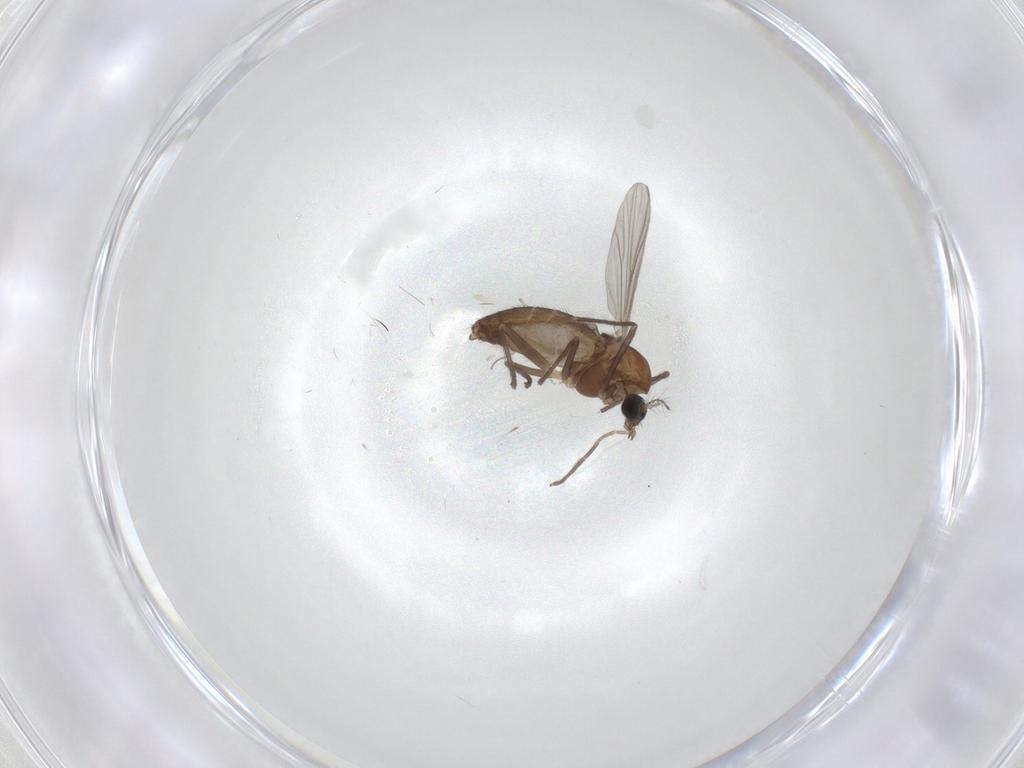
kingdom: Animalia
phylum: Arthropoda
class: Insecta
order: Diptera
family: Chironomidae
